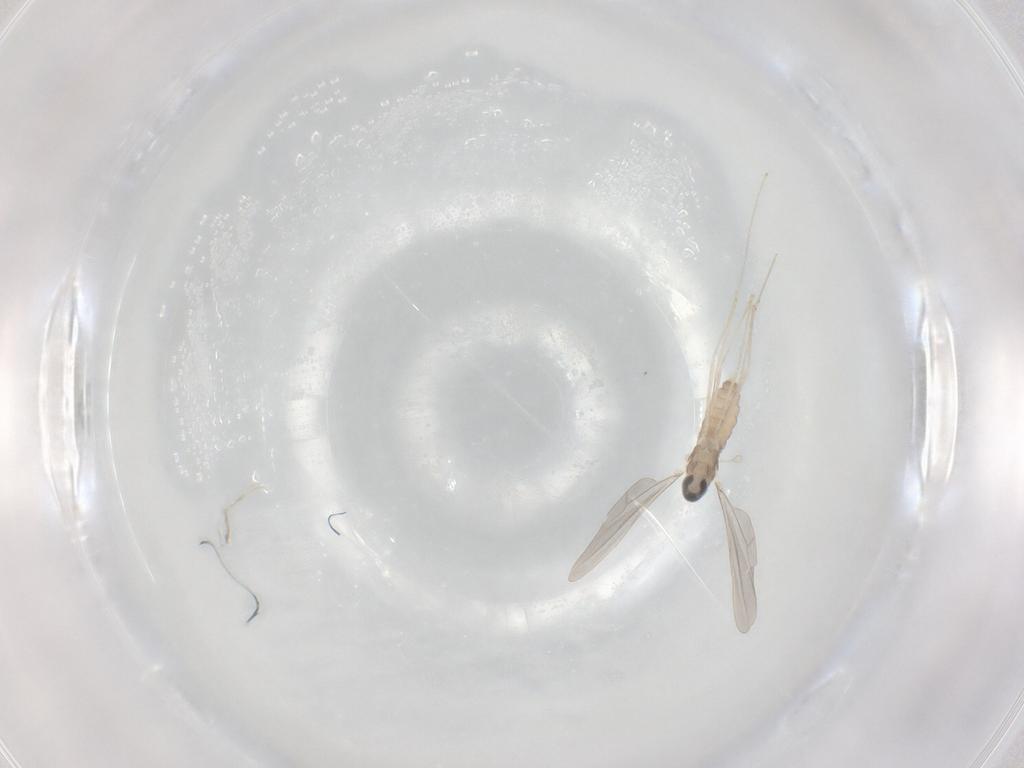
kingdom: Animalia
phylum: Arthropoda
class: Insecta
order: Diptera
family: Cecidomyiidae
